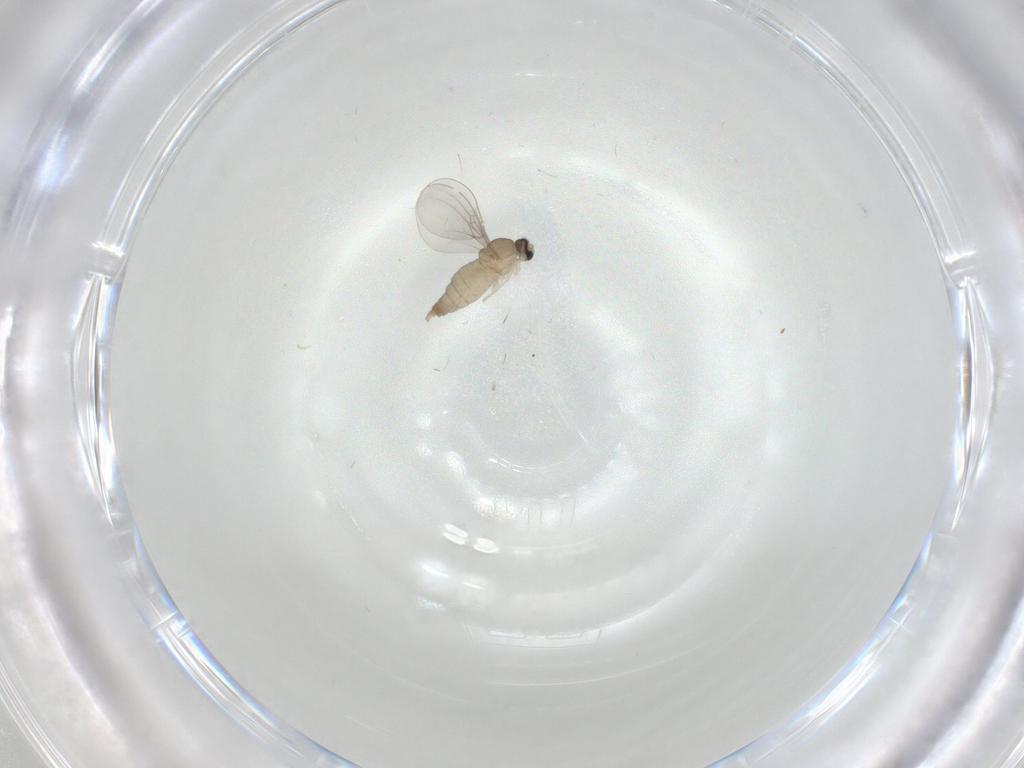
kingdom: Animalia
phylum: Arthropoda
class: Insecta
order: Diptera
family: Cecidomyiidae
